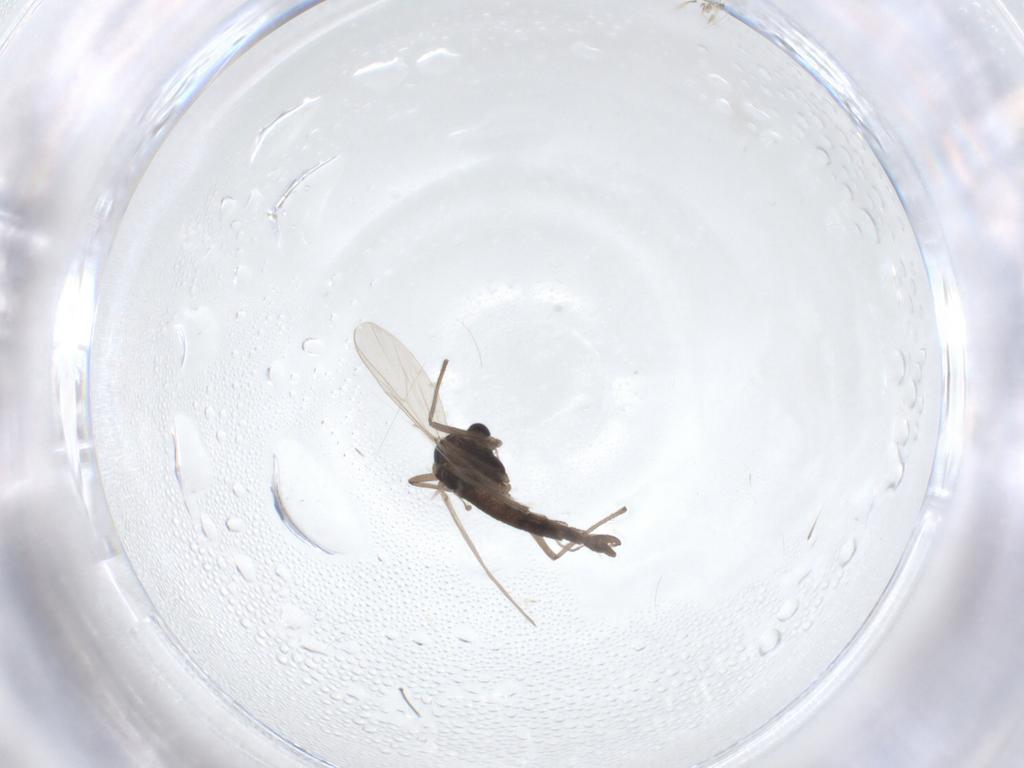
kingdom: Animalia
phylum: Arthropoda
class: Insecta
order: Diptera
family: Chironomidae
